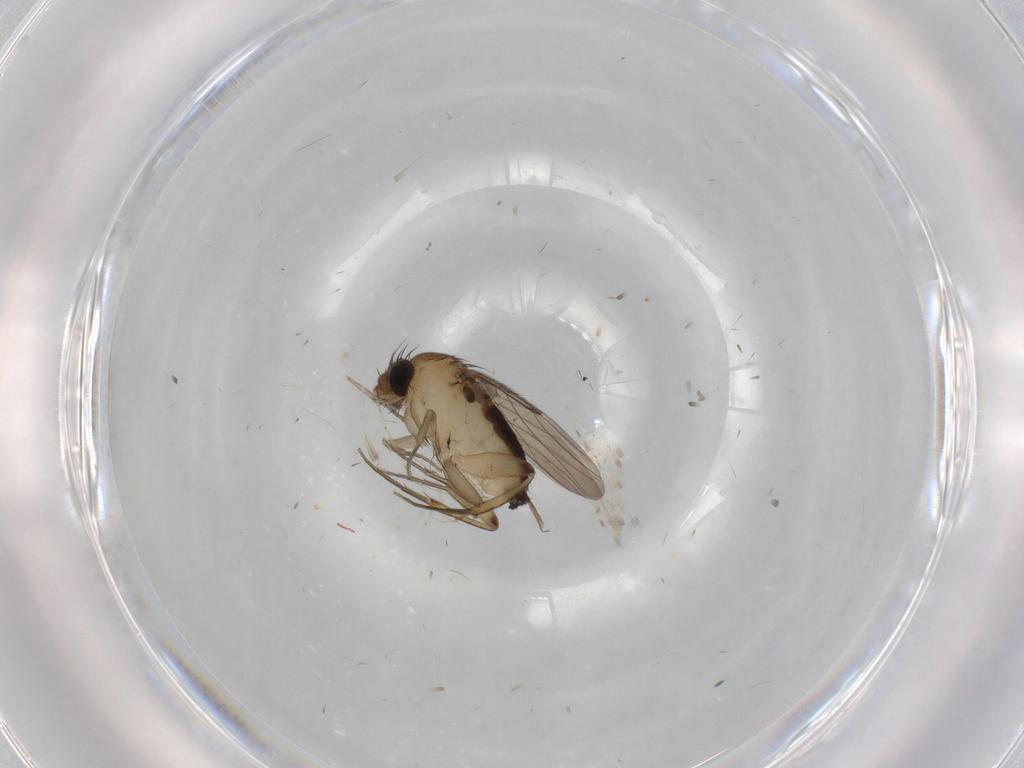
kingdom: Animalia
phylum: Arthropoda
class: Insecta
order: Diptera
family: Phoridae
